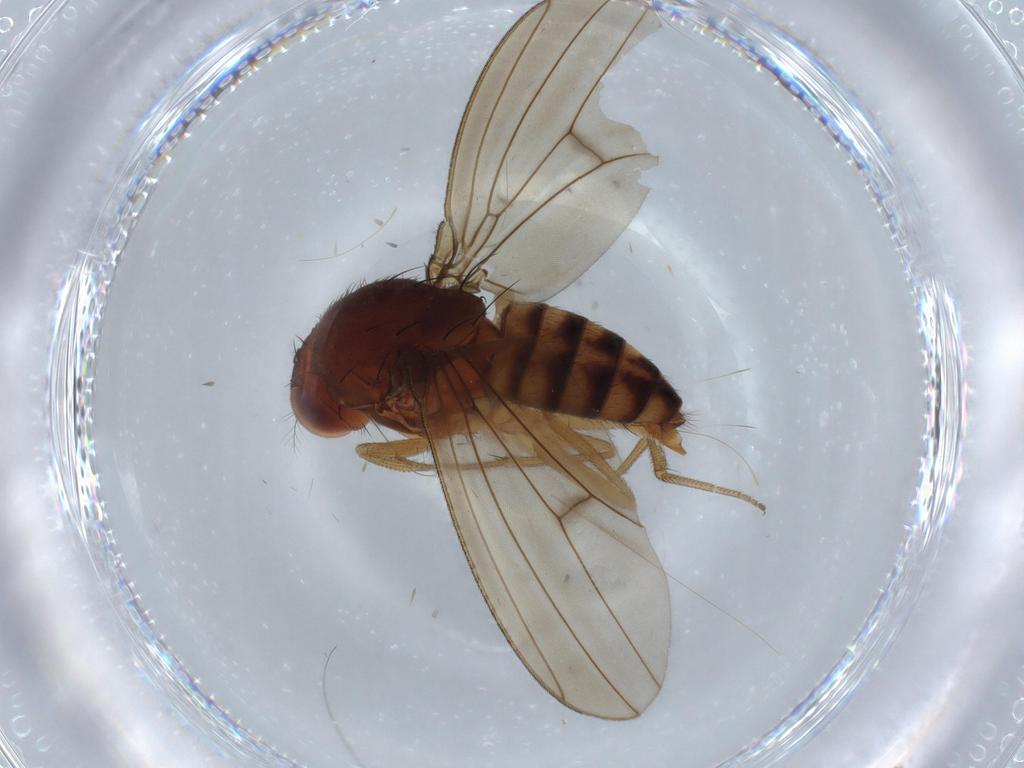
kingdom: Animalia
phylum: Arthropoda
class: Insecta
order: Diptera
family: Drosophilidae
